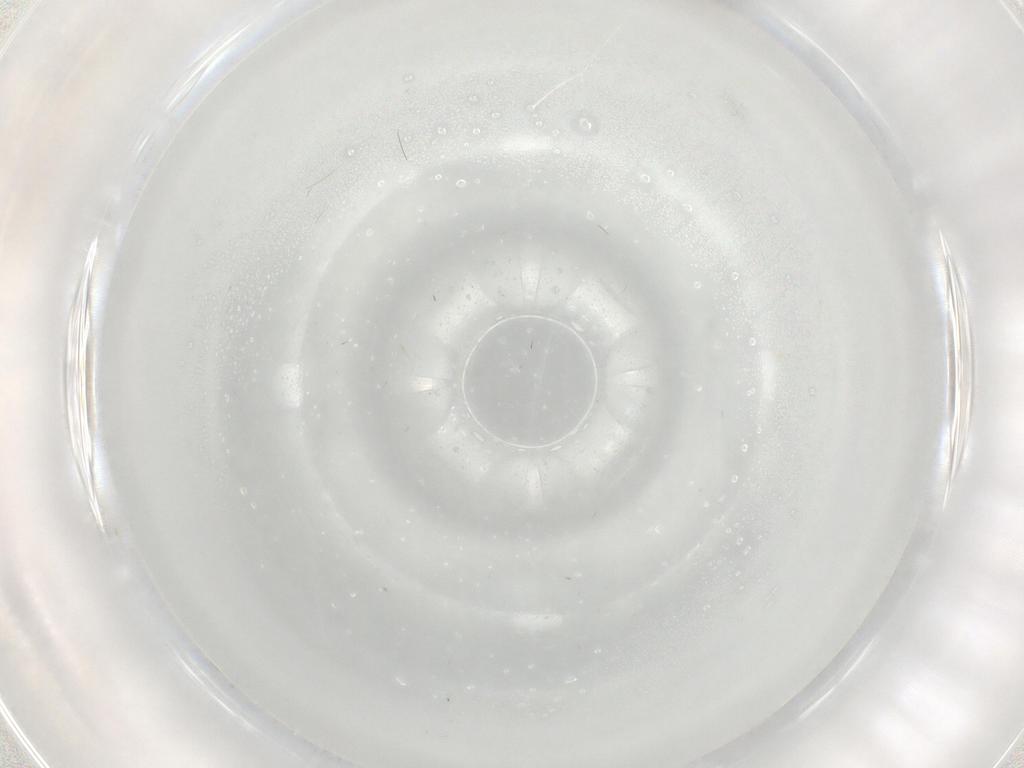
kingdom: Animalia
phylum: Arthropoda
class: Insecta
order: Diptera
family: Cecidomyiidae
